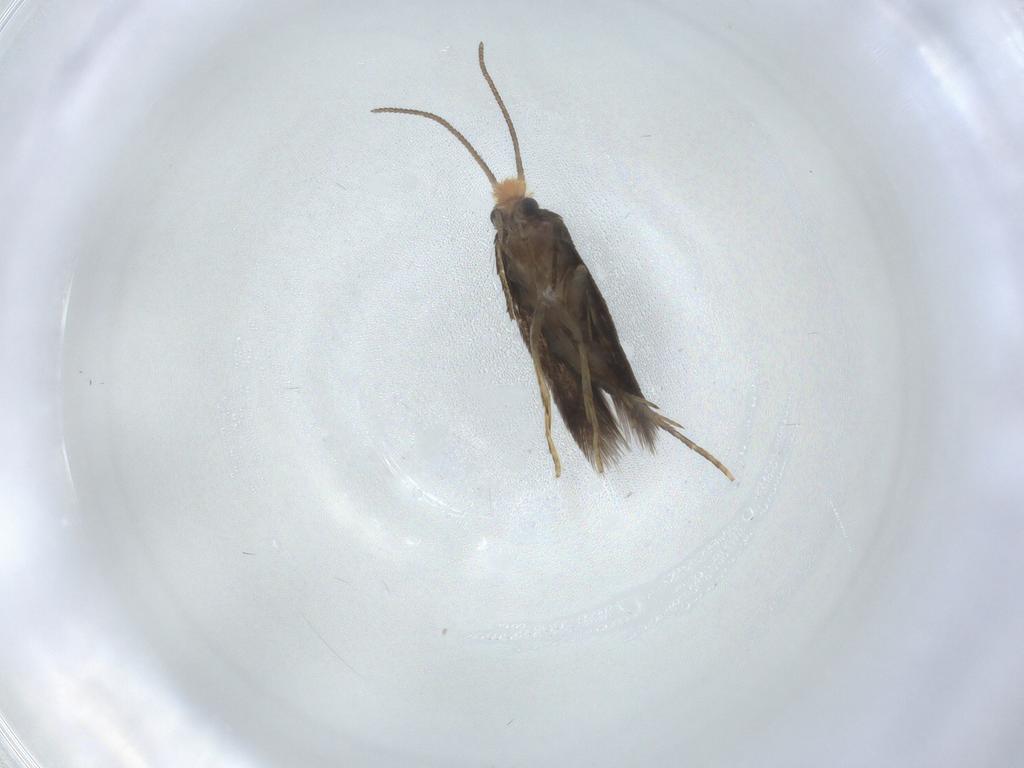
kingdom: Animalia
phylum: Arthropoda
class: Insecta
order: Lepidoptera
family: Nepticulidae
